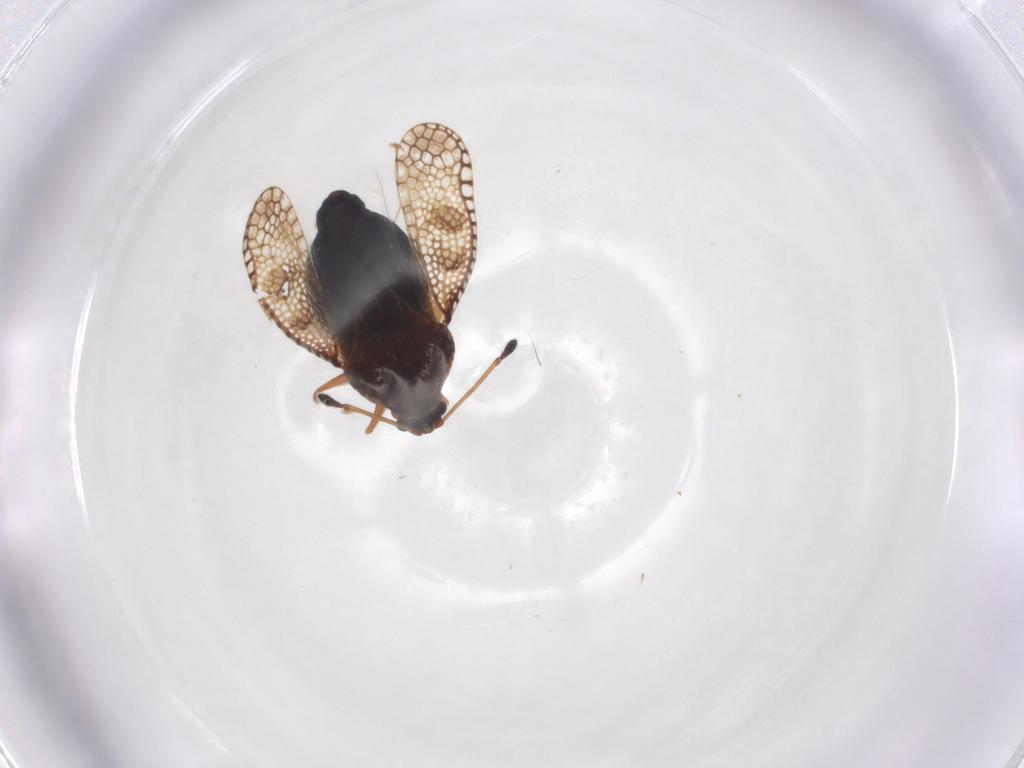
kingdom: Animalia
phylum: Arthropoda
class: Insecta
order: Hemiptera
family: Tingidae
